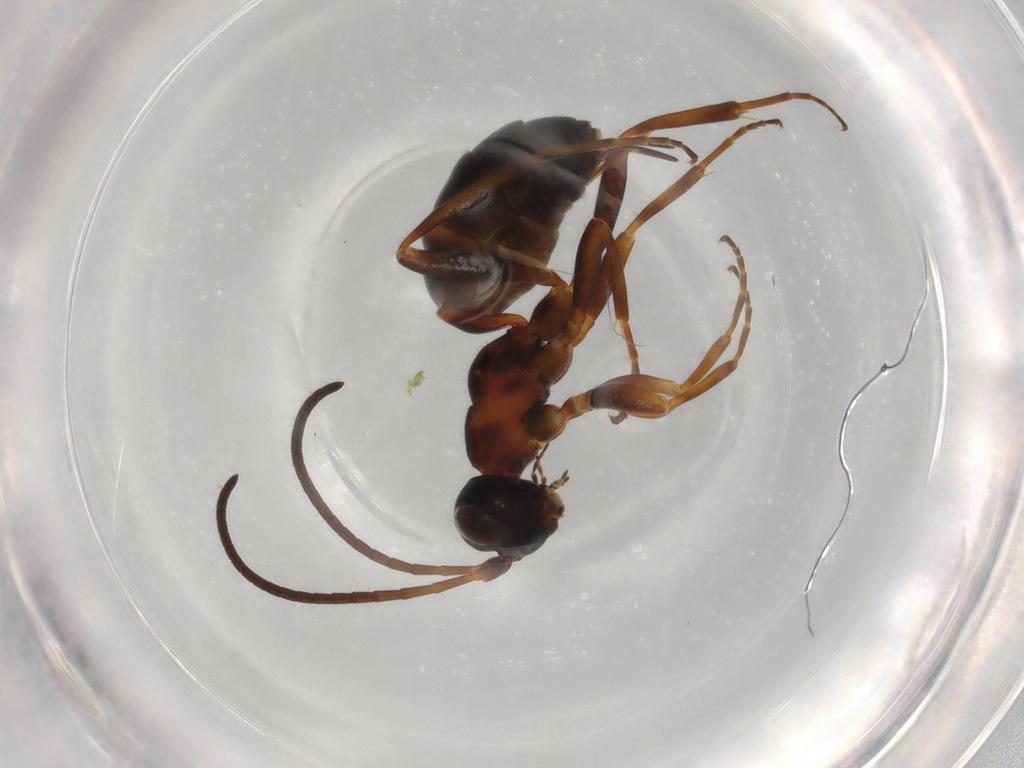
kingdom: Animalia
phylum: Arthropoda
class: Insecta
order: Hymenoptera
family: Ichneumonidae
